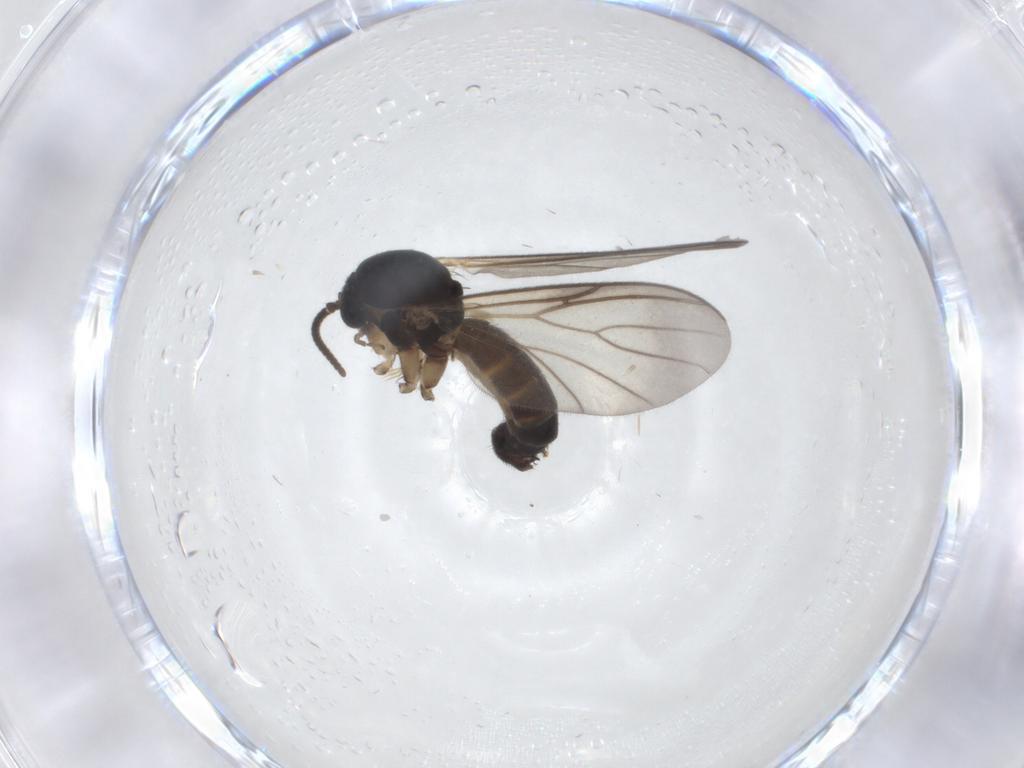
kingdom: Animalia
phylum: Arthropoda
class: Insecta
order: Diptera
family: Mycetophilidae
